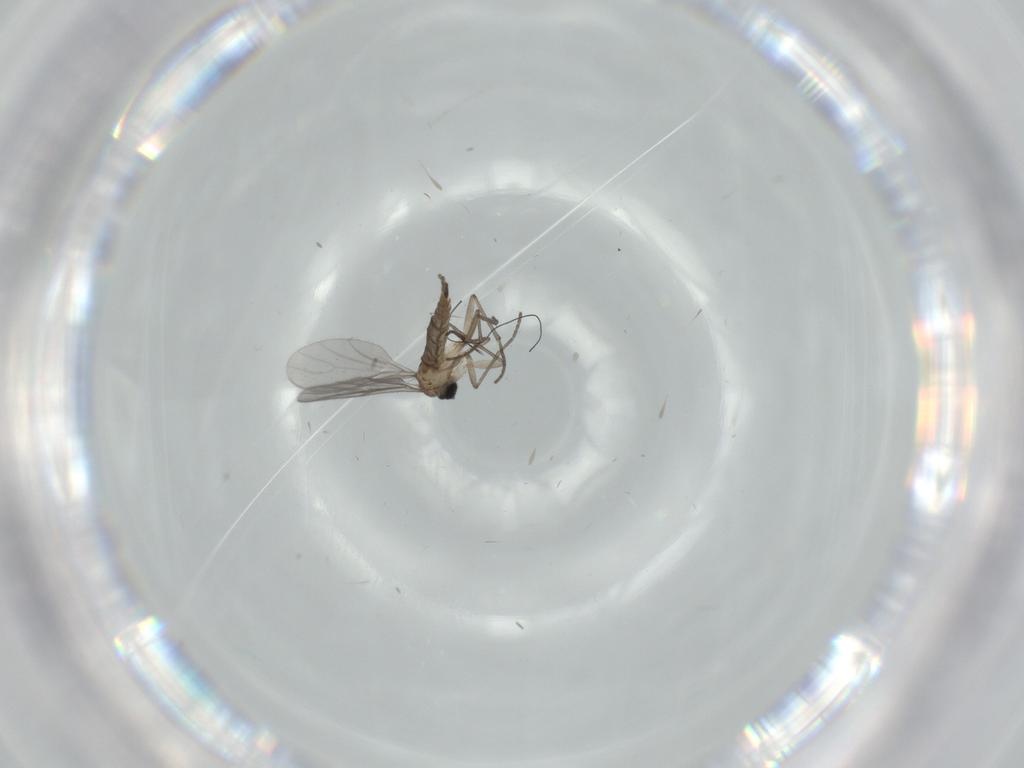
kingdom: Animalia
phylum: Arthropoda
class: Insecta
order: Diptera
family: Sciaridae
